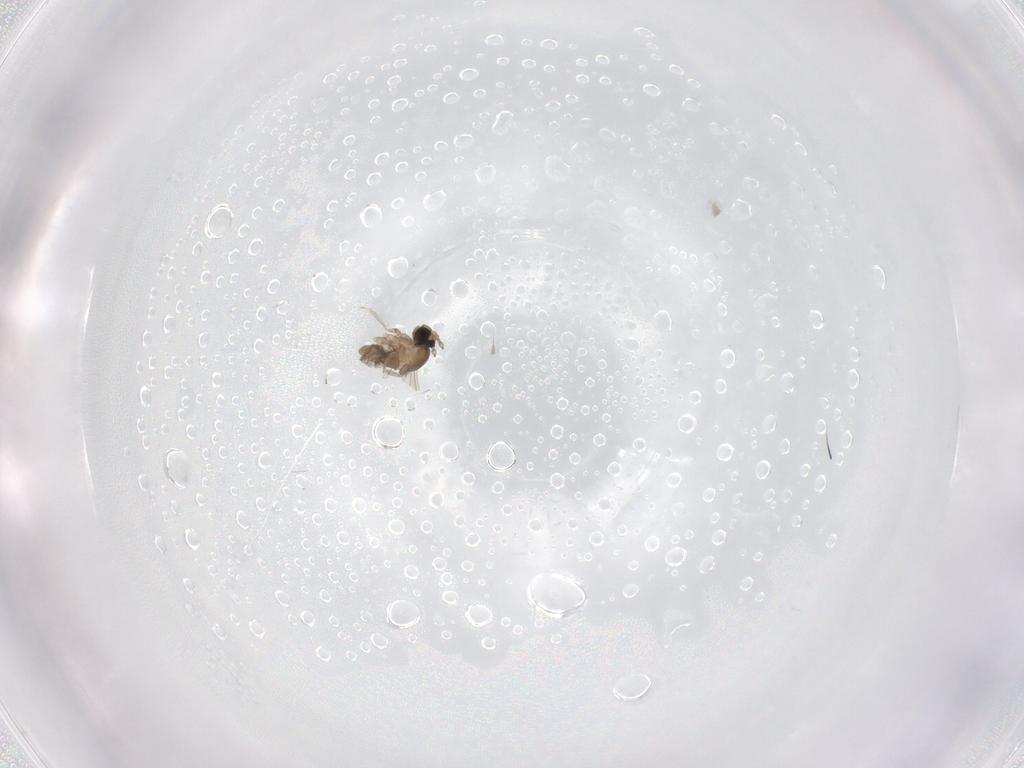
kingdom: Animalia
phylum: Arthropoda
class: Insecta
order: Diptera
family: Cecidomyiidae
